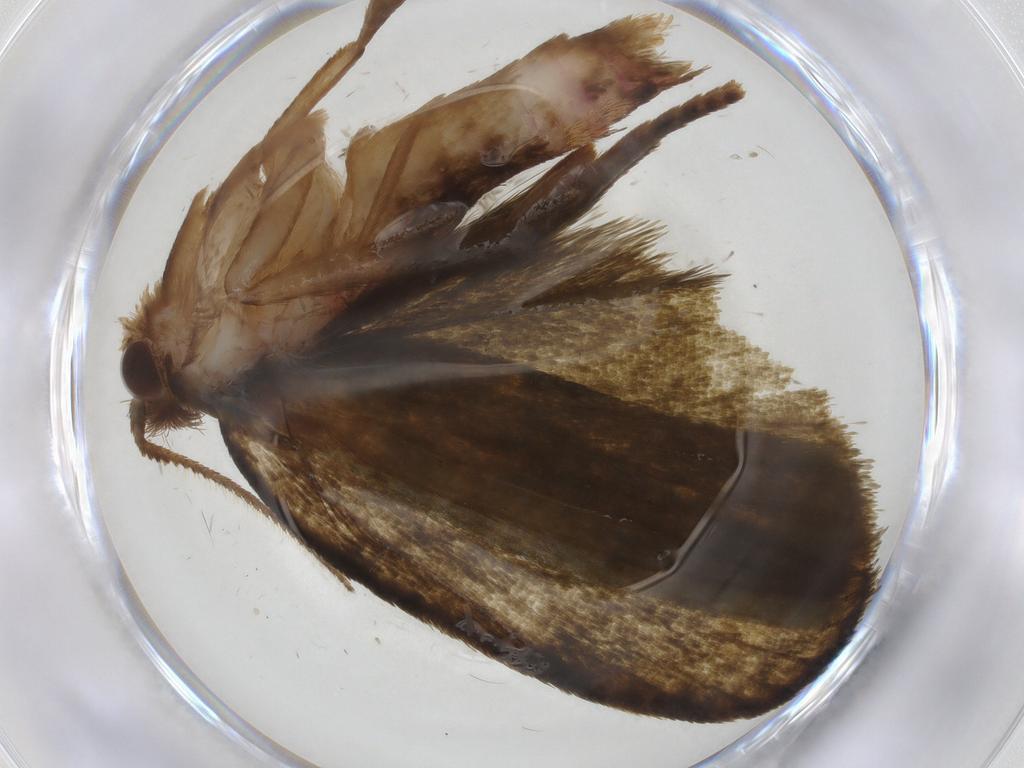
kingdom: Animalia
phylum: Arthropoda
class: Insecta
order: Lepidoptera
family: Geometridae
